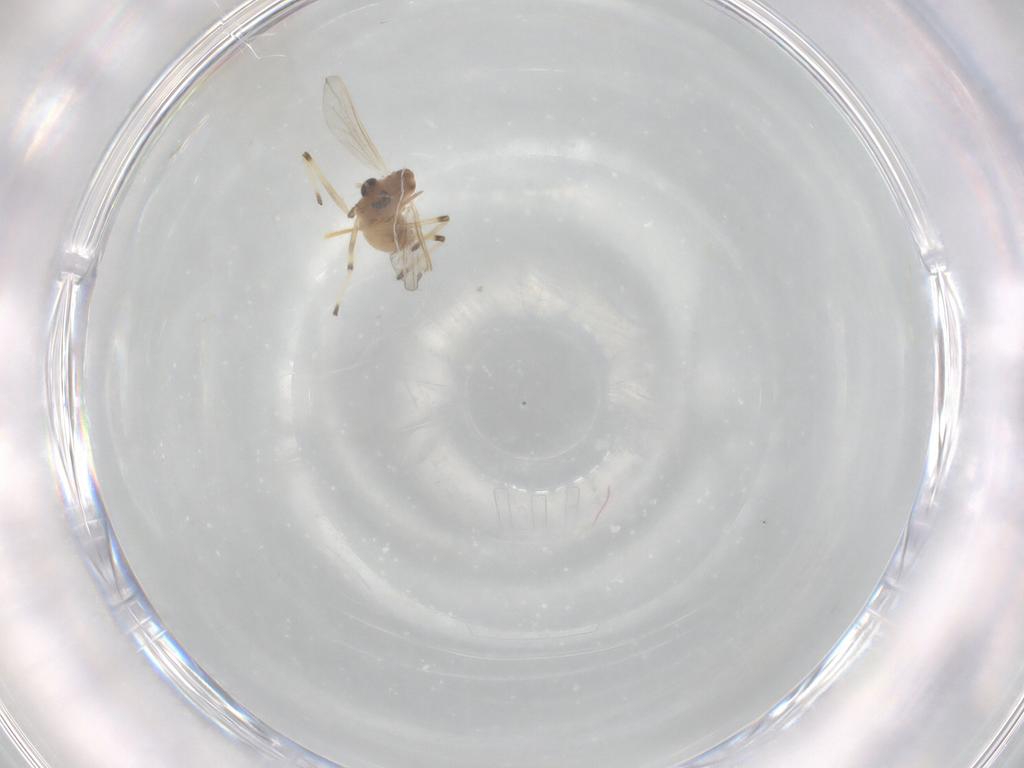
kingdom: Animalia
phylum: Arthropoda
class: Insecta
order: Diptera
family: Chironomidae
